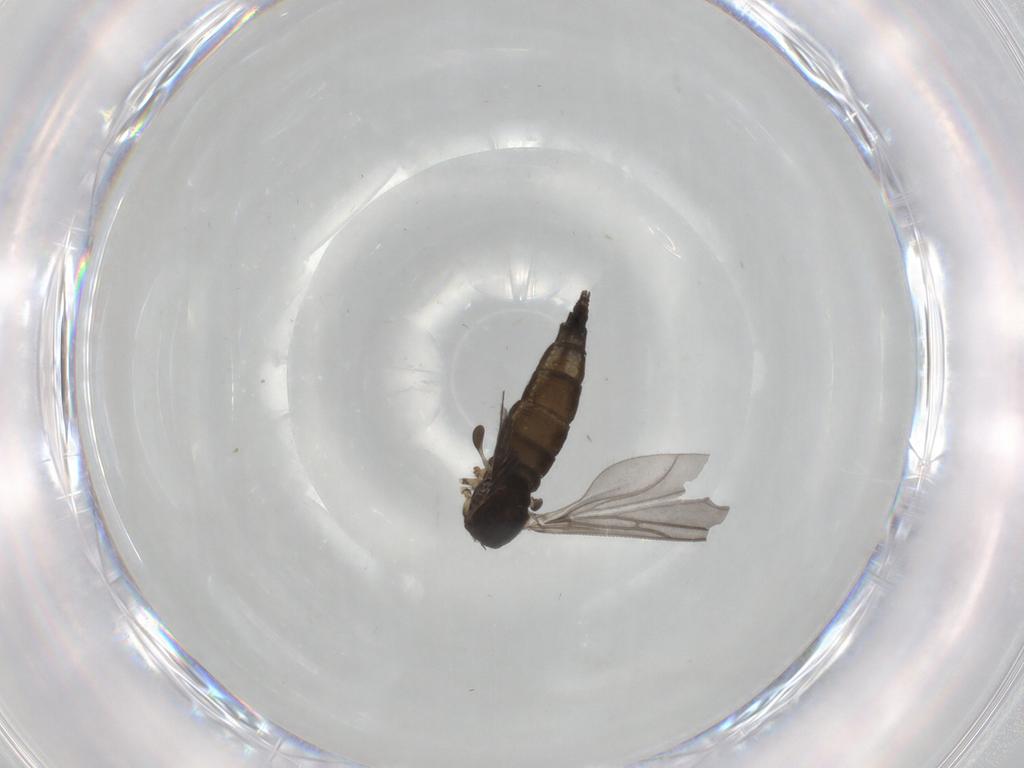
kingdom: Animalia
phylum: Arthropoda
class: Insecta
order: Diptera
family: Sciaridae
